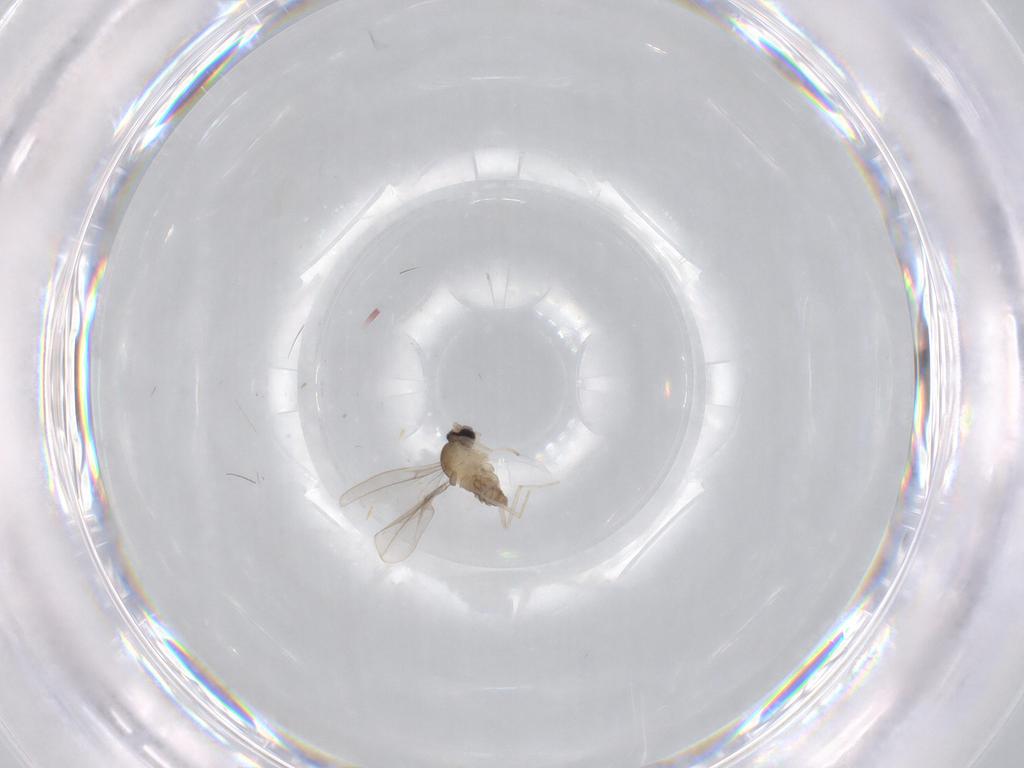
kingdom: Animalia
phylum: Arthropoda
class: Insecta
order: Diptera
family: Cecidomyiidae
